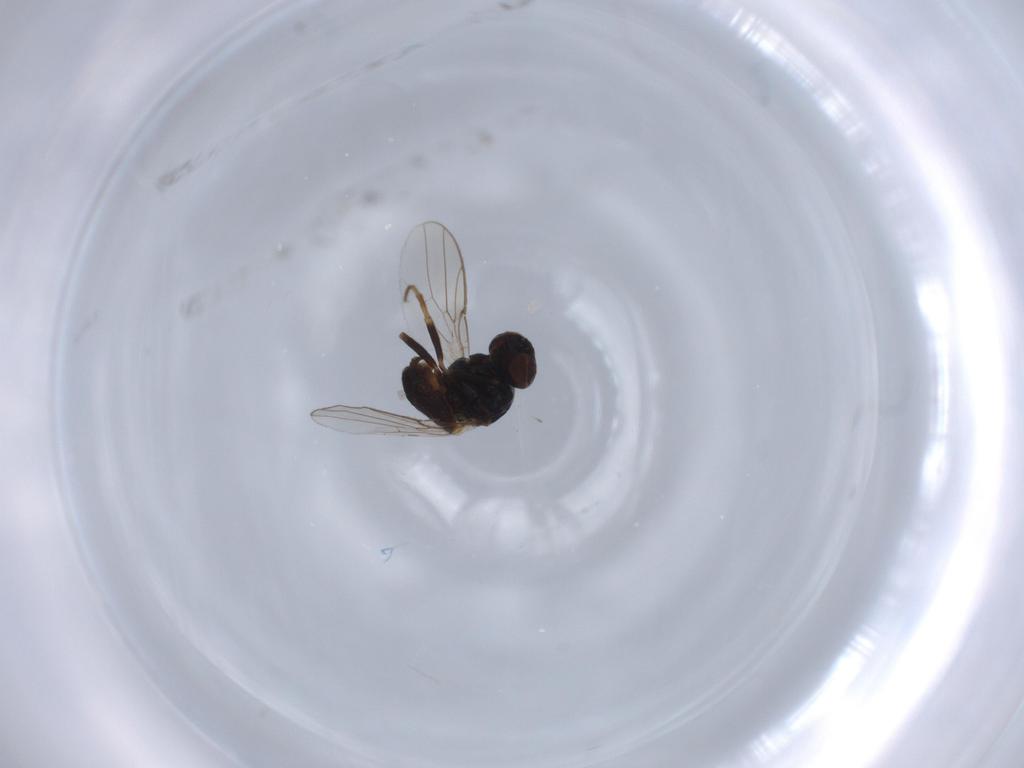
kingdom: Animalia
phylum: Arthropoda
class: Insecta
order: Diptera
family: Chloropidae
